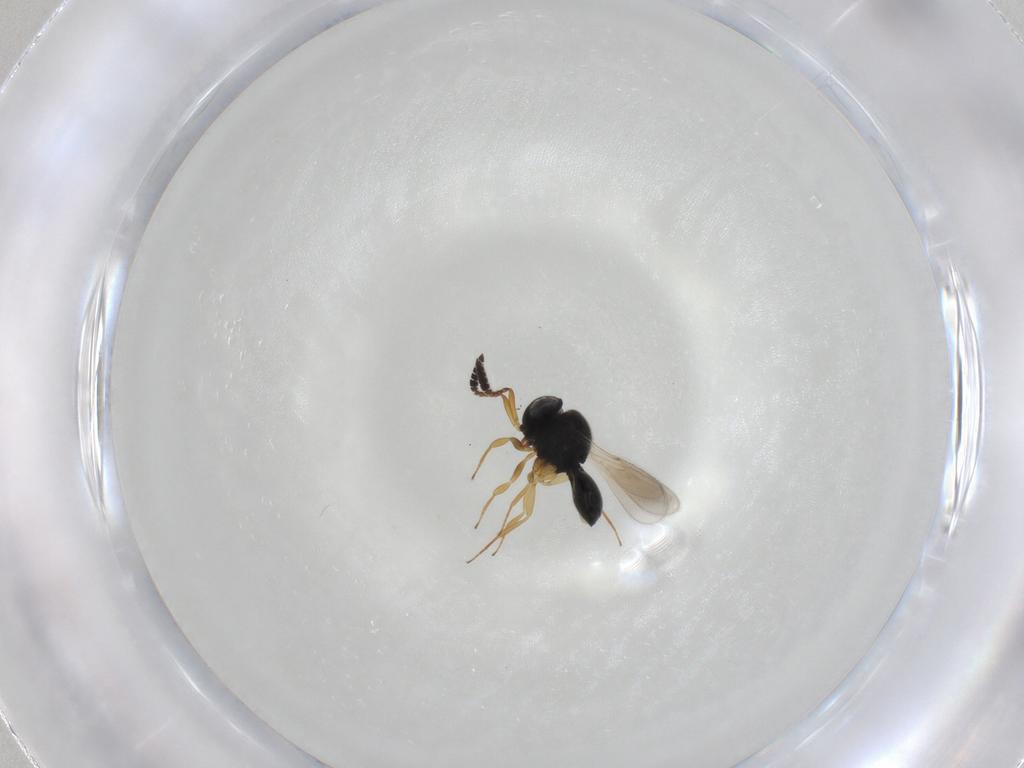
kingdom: Animalia
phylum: Arthropoda
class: Insecta
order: Hymenoptera
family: Scelionidae
